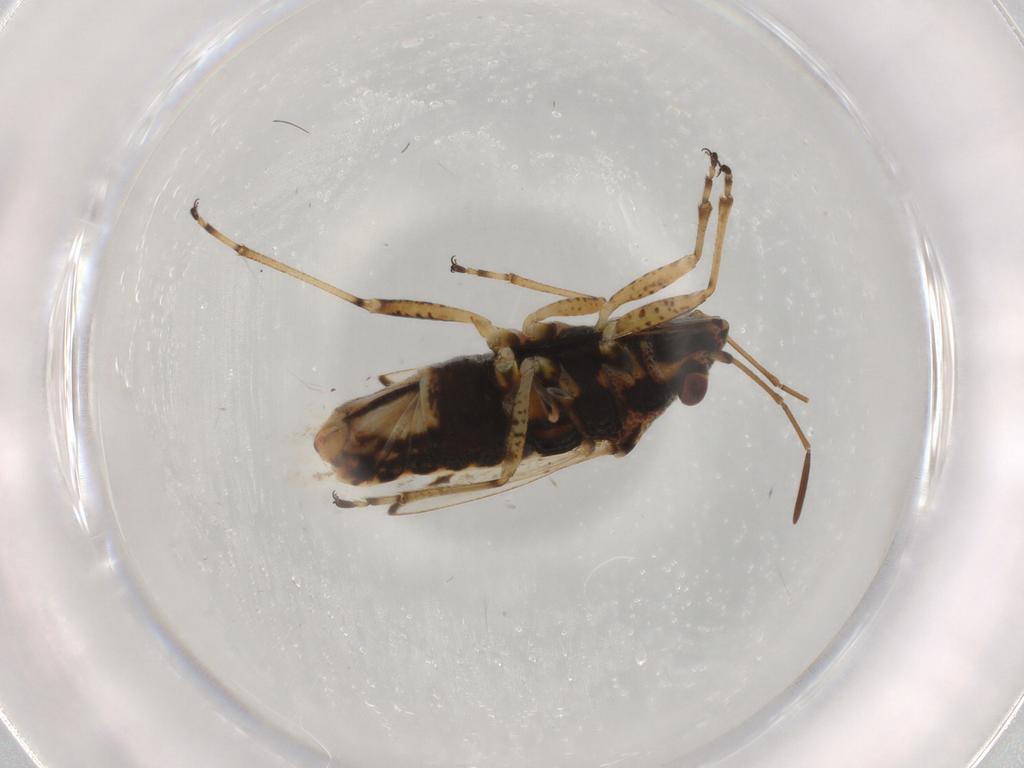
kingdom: Animalia
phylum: Arthropoda
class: Insecta
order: Hemiptera
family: Lygaeidae
